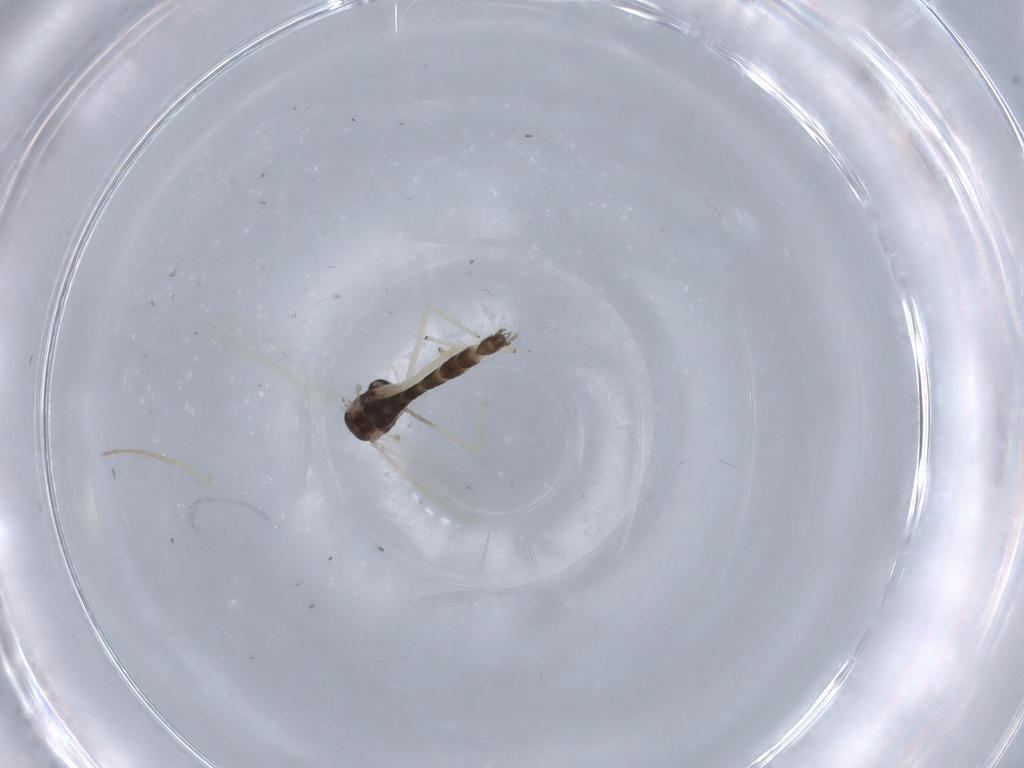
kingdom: Animalia
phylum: Arthropoda
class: Insecta
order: Diptera
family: Chironomidae
